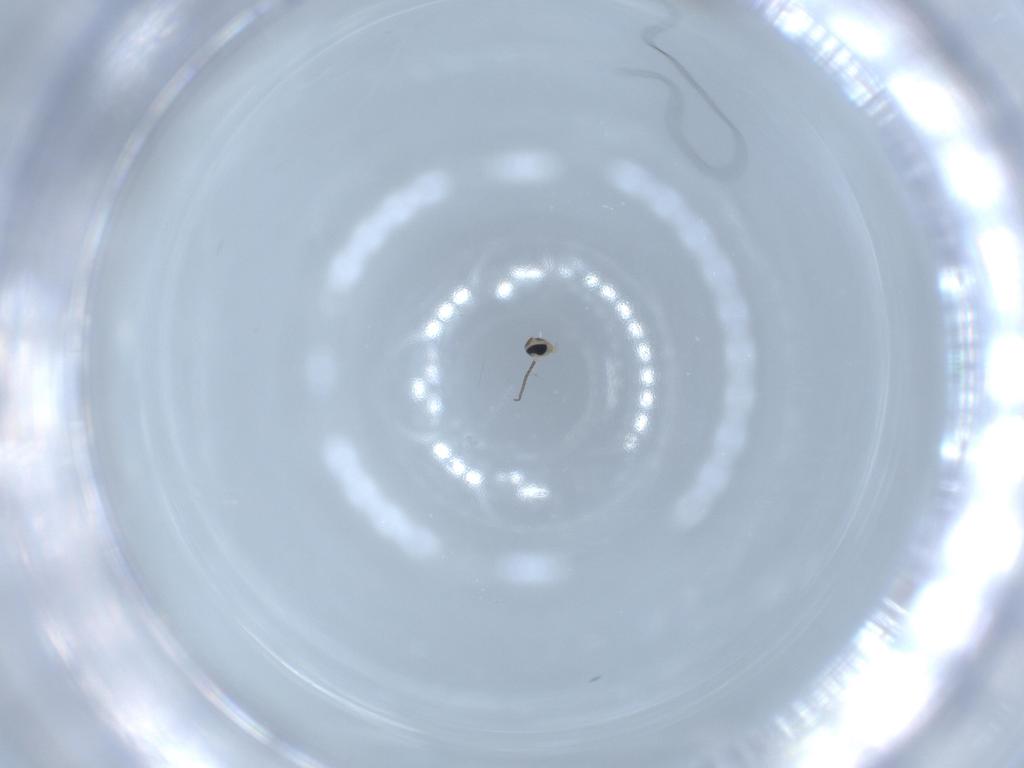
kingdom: Animalia
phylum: Arthropoda
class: Insecta
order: Diptera
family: Cecidomyiidae
